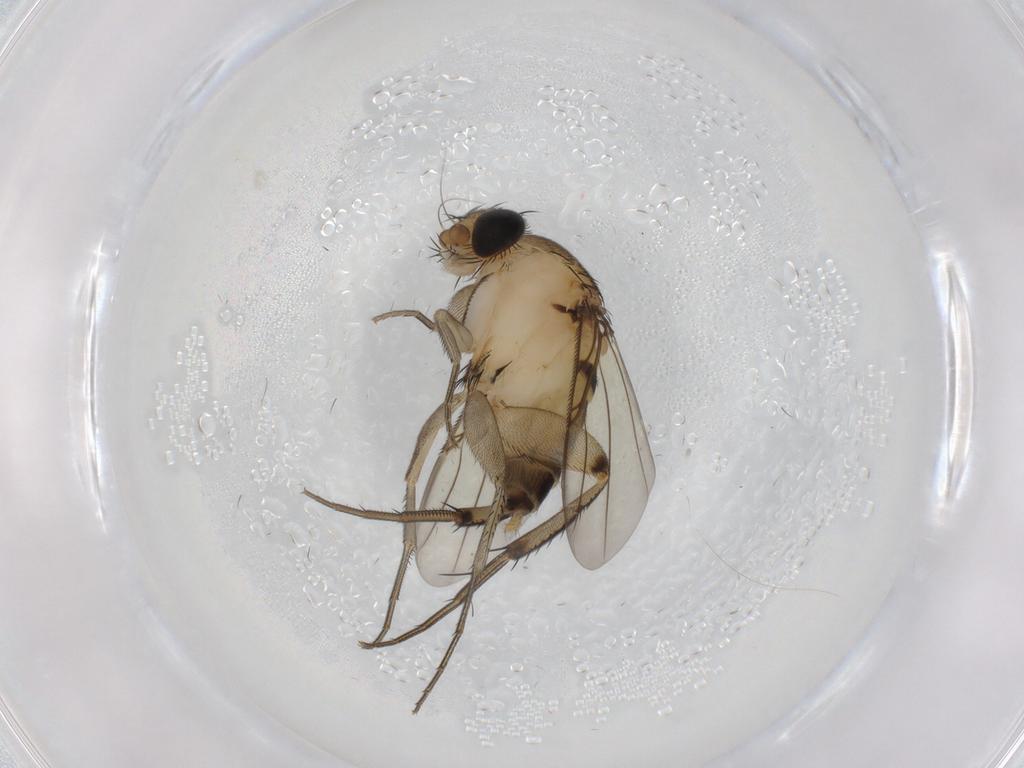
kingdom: Animalia
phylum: Arthropoda
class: Insecta
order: Diptera
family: Phoridae
